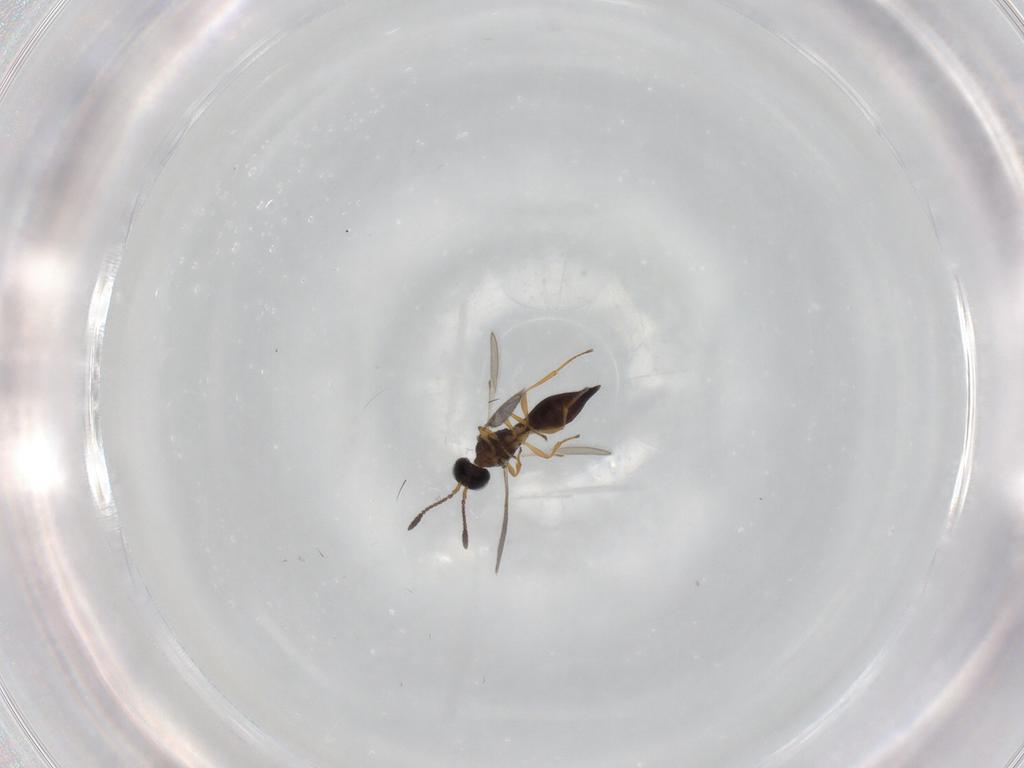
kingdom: Animalia
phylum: Arthropoda
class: Insecta
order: Hymenoptera
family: Scelionidae
